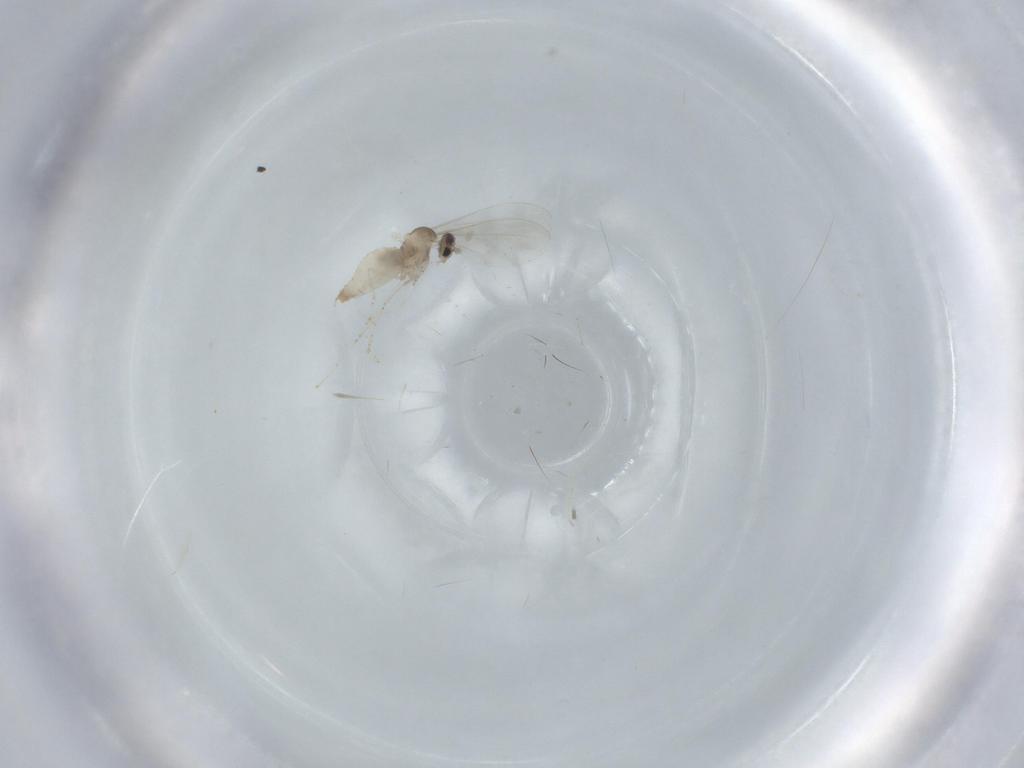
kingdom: Animalia
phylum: Arthropoda
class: Insecta
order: Diptera
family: Cecidomyiidae
